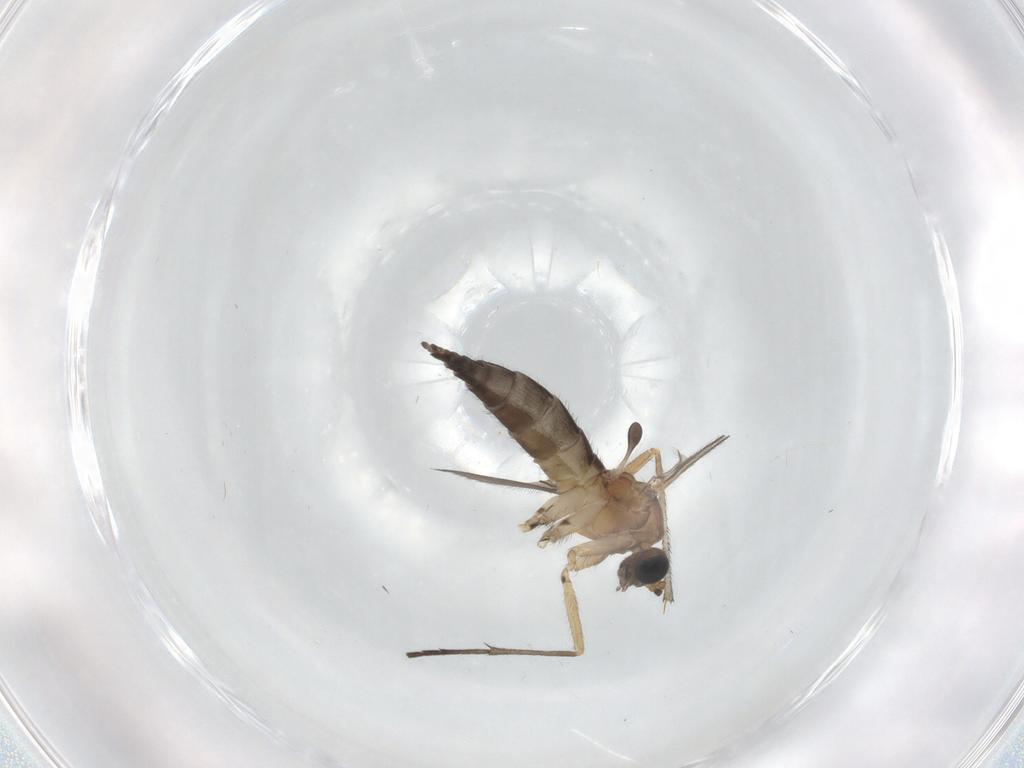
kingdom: Animalia
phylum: Arthropoda
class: Insecta
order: Diptera
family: Sciaridae
